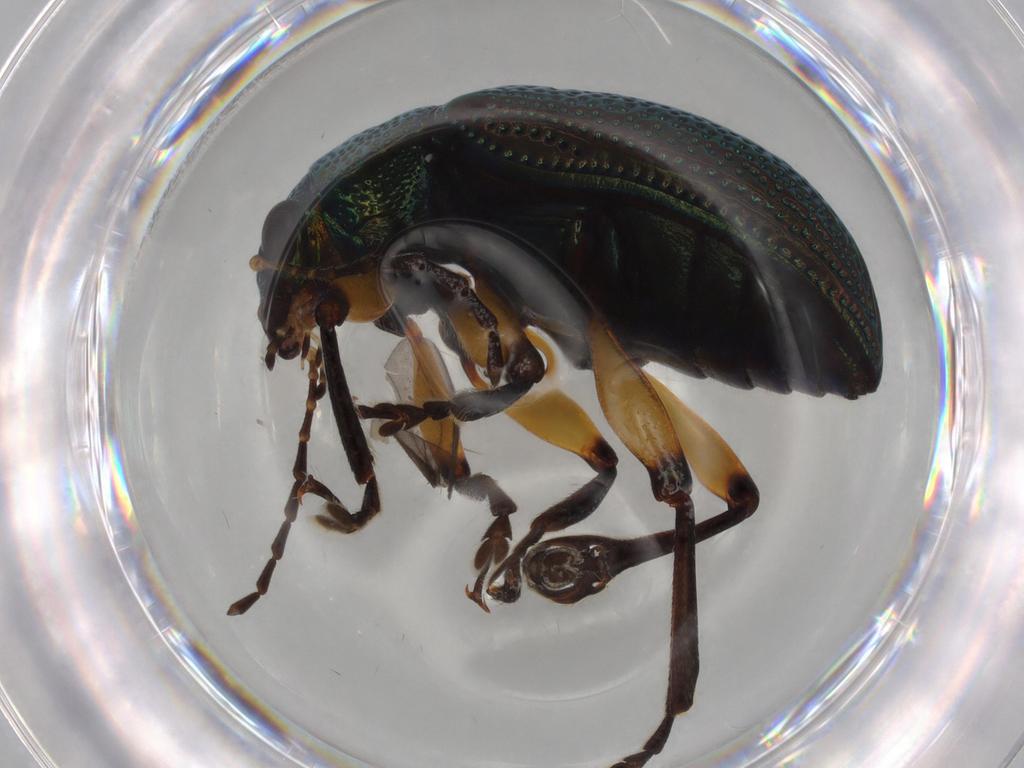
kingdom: Animalia
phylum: Arthropoda
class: Insecta
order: Coleoptera
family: Chrysomelidae
